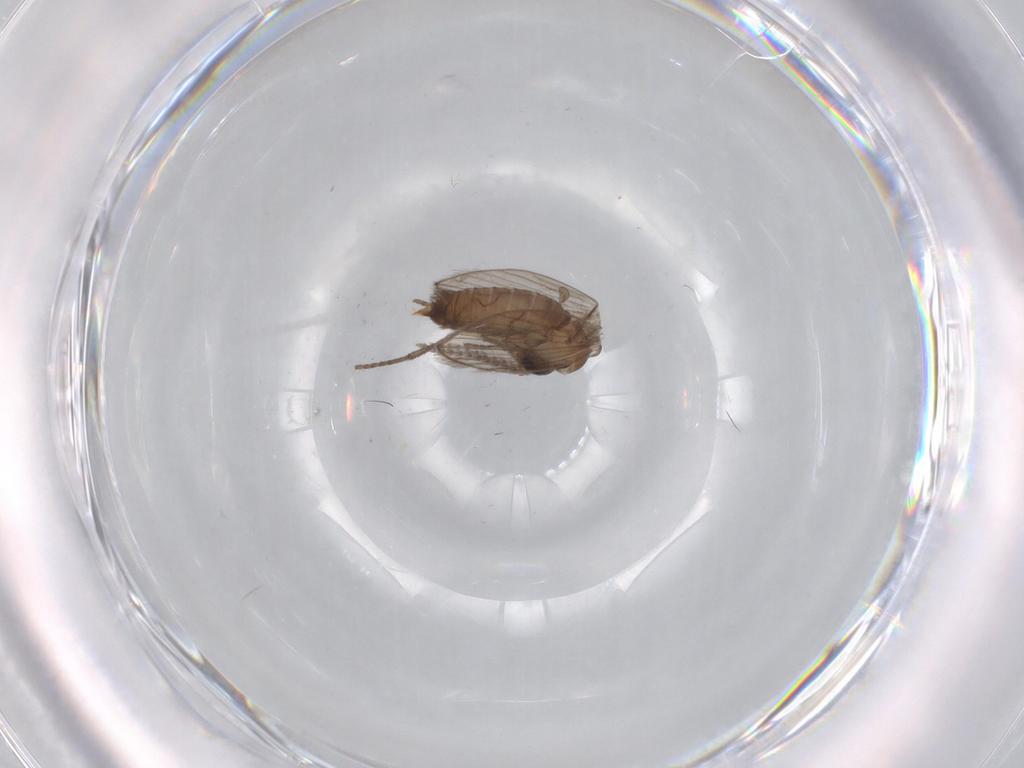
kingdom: Animalia
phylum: Arthropoda
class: Insecta
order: Diptera
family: Psychodidae
